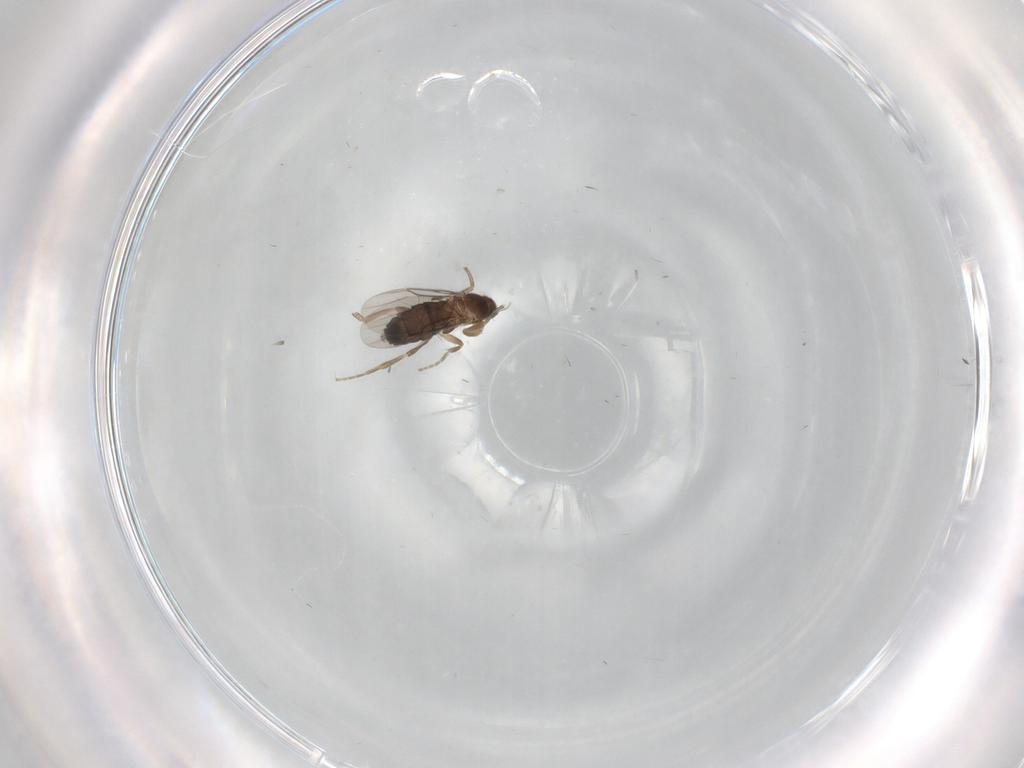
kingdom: Animalia
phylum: Arthropoda
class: Insecta
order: Diptera
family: Phoridae
